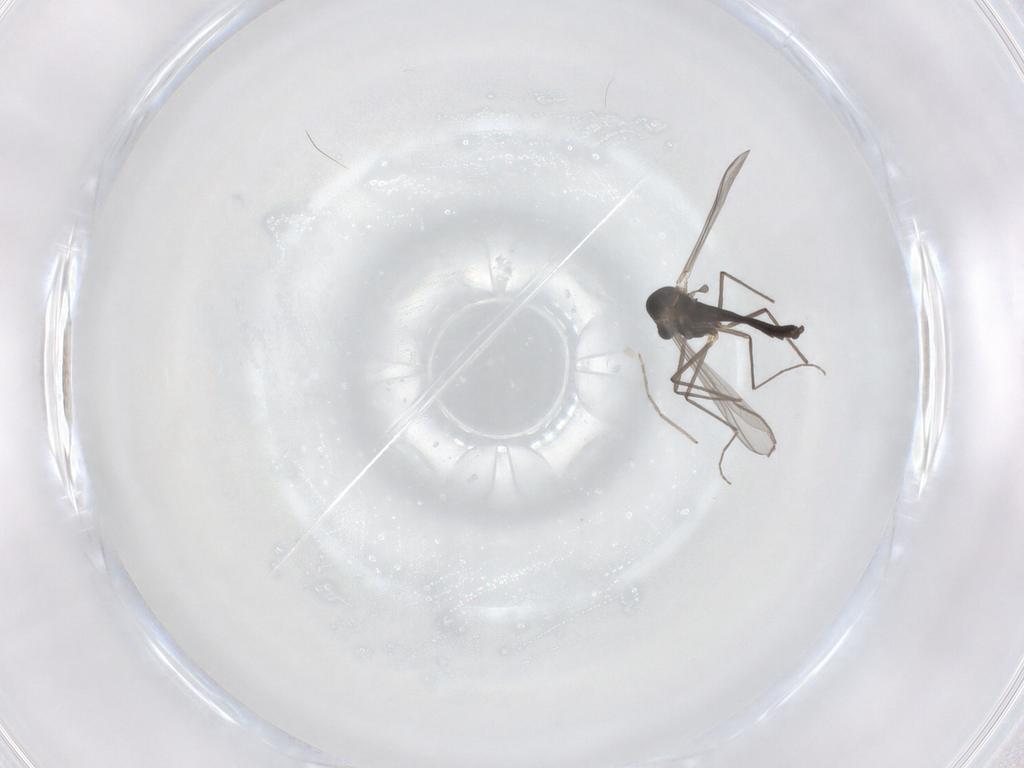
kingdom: Animalia
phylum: Arthropoda
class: Insecta
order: Diptera
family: Chironomidae
